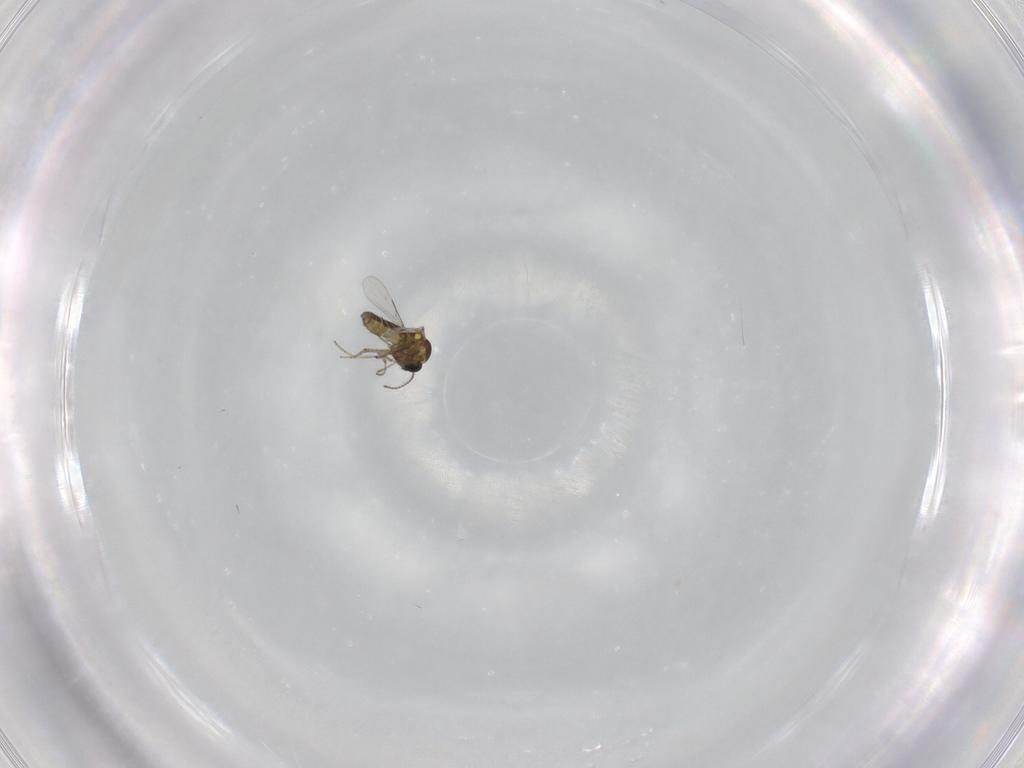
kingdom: Animalia
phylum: Arthropoda
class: Insecta
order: Diptera
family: Ceratopogonidae
